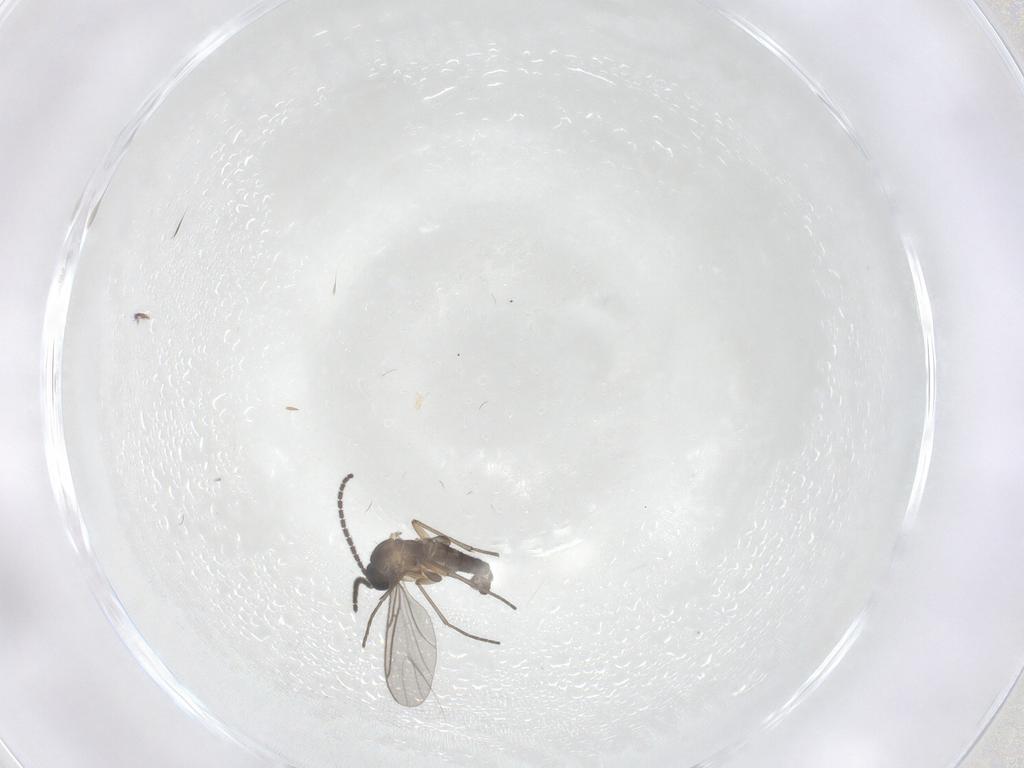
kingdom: Animalia
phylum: Arthropoda
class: Insecta
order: Diptera
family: Sciaridae
